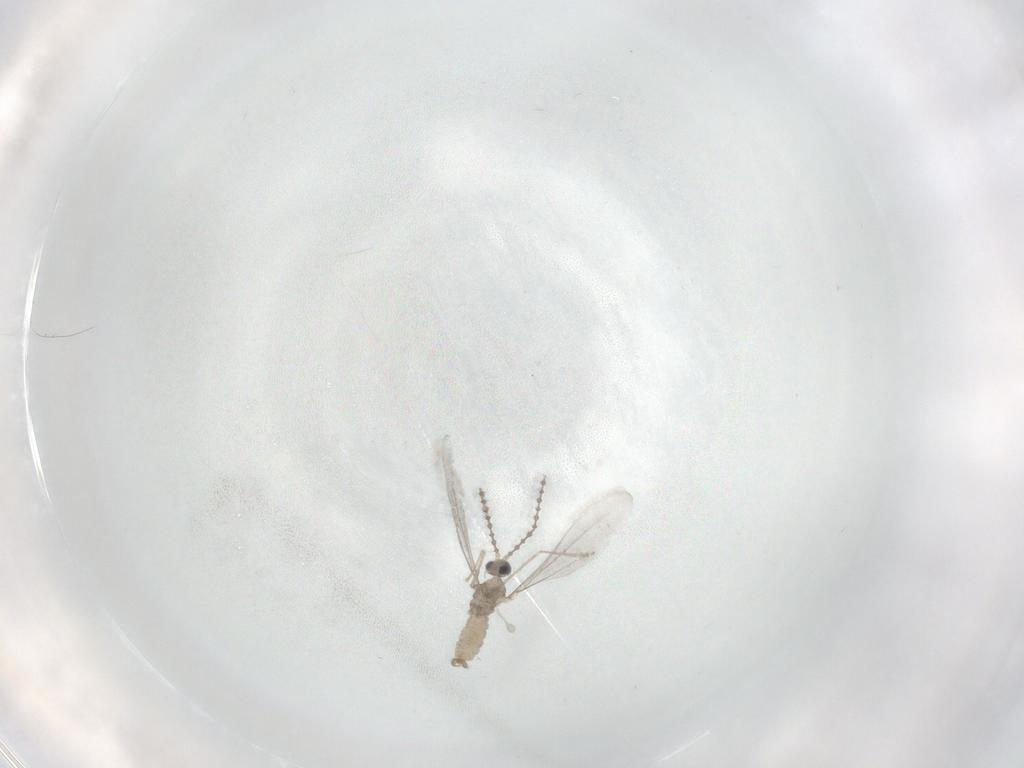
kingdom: Animalia
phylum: Arthropoda
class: Insecta
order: Diptera
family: Cecidomyiidae
